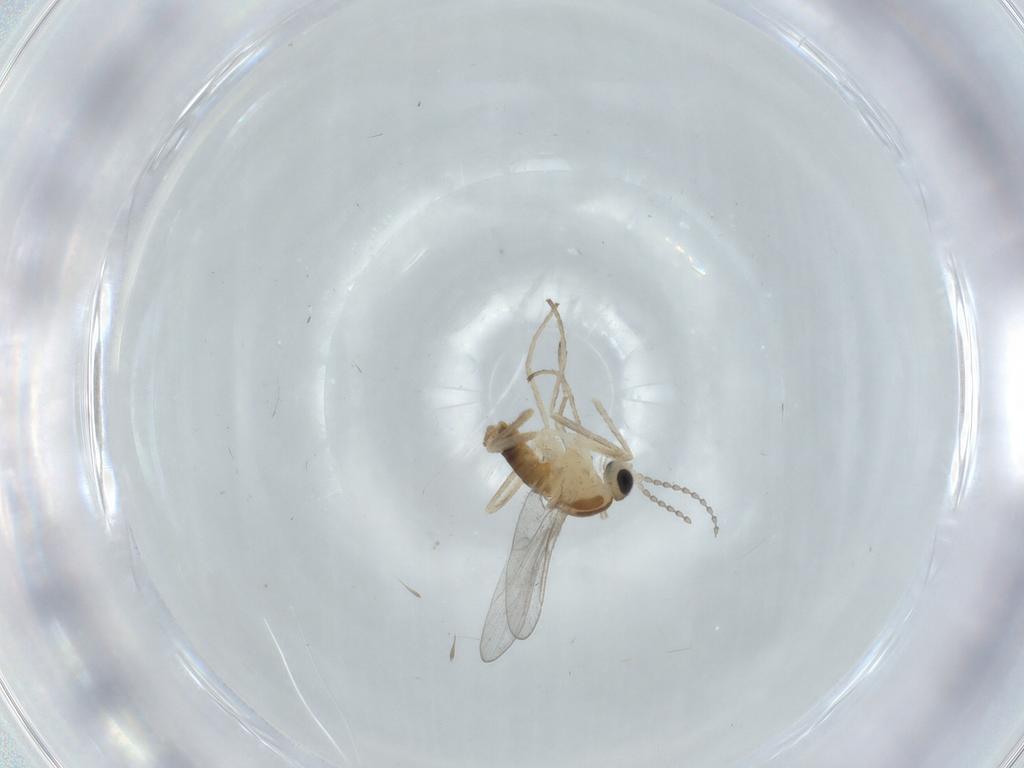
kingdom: Animalia
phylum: Arthropoda
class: Insecta
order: Diptera
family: Cecidomyiidae
